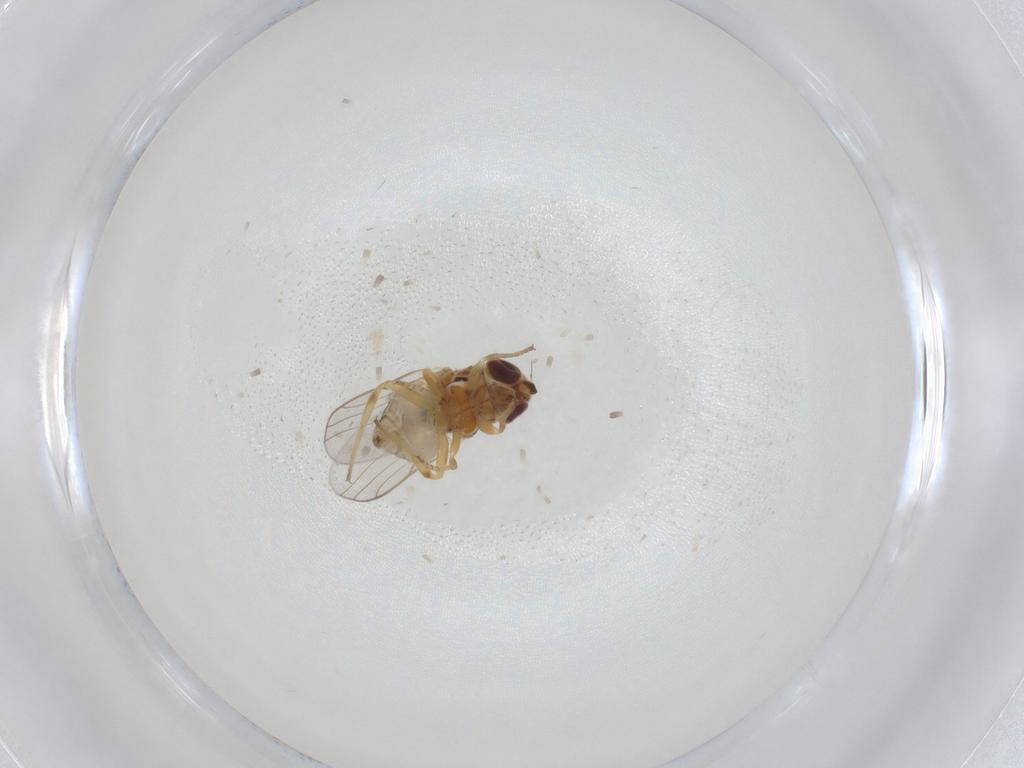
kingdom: Animalia
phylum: Arthropoda
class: Insecta
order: Diptera
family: Chloropidae
